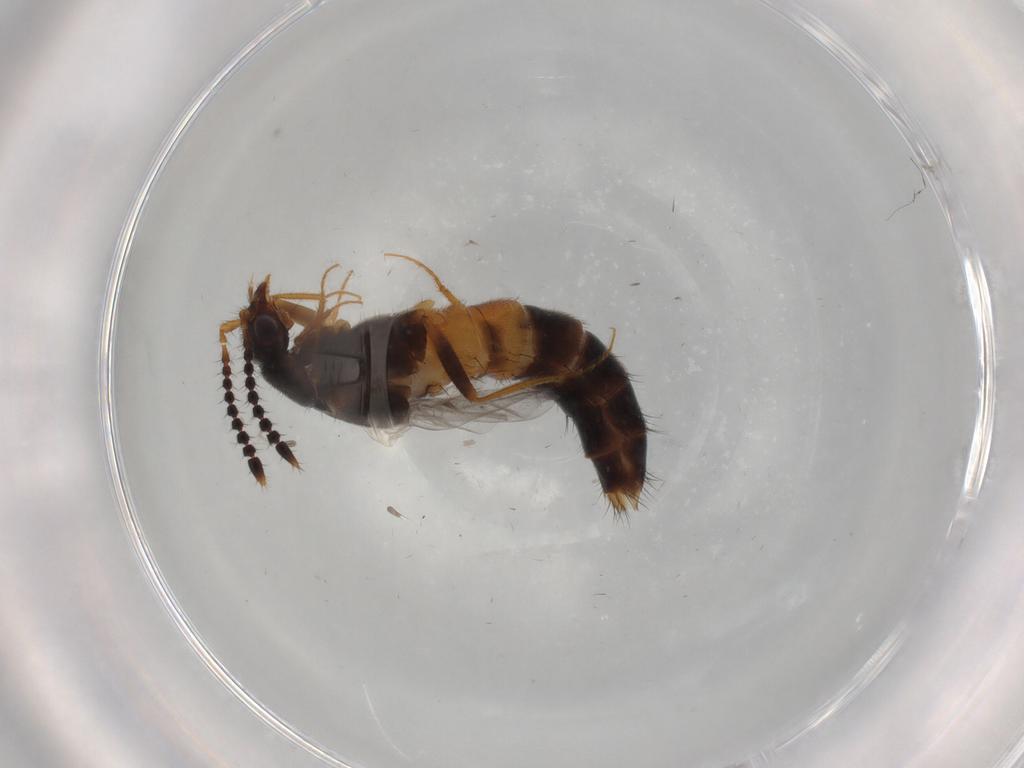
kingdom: Animalia
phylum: Arthropoda
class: Insecta
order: Coleoptera
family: Staphylinidae
